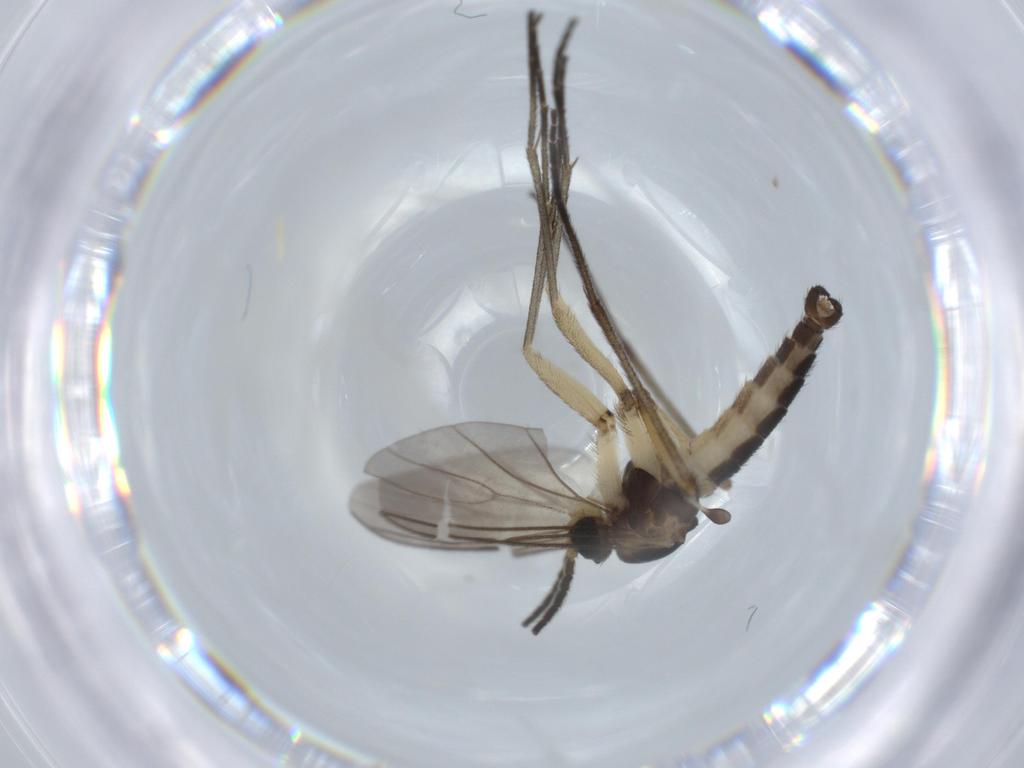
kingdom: Animalia
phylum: Arthropoda
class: Insecta
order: Diptera
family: Sciaridae
